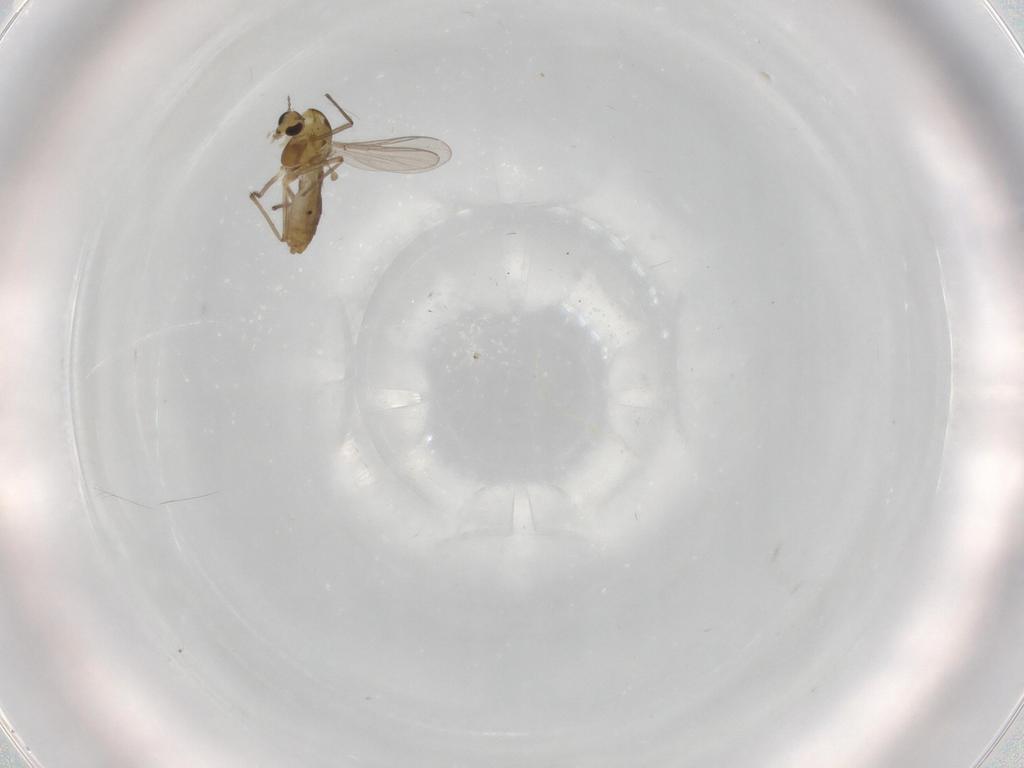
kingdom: Animalia
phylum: Arthropoda
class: Insecta
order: Diptera
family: Chironomidae
